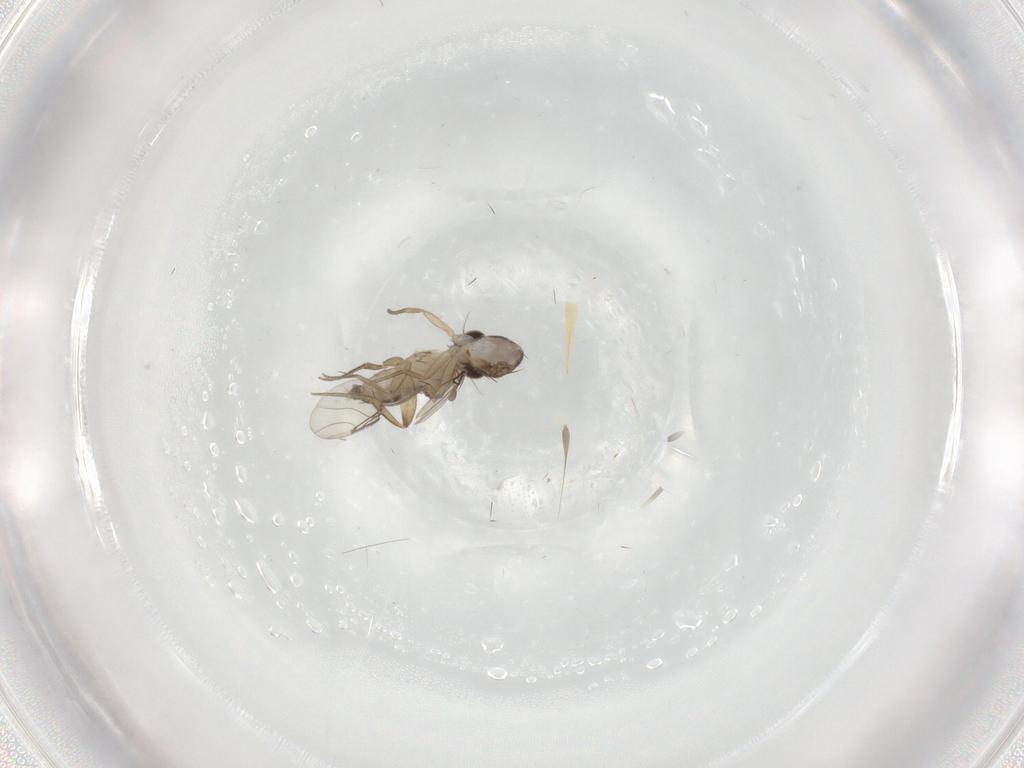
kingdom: Animalia
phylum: Arthropoda
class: Insecta
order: Diptera
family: Phoridae
